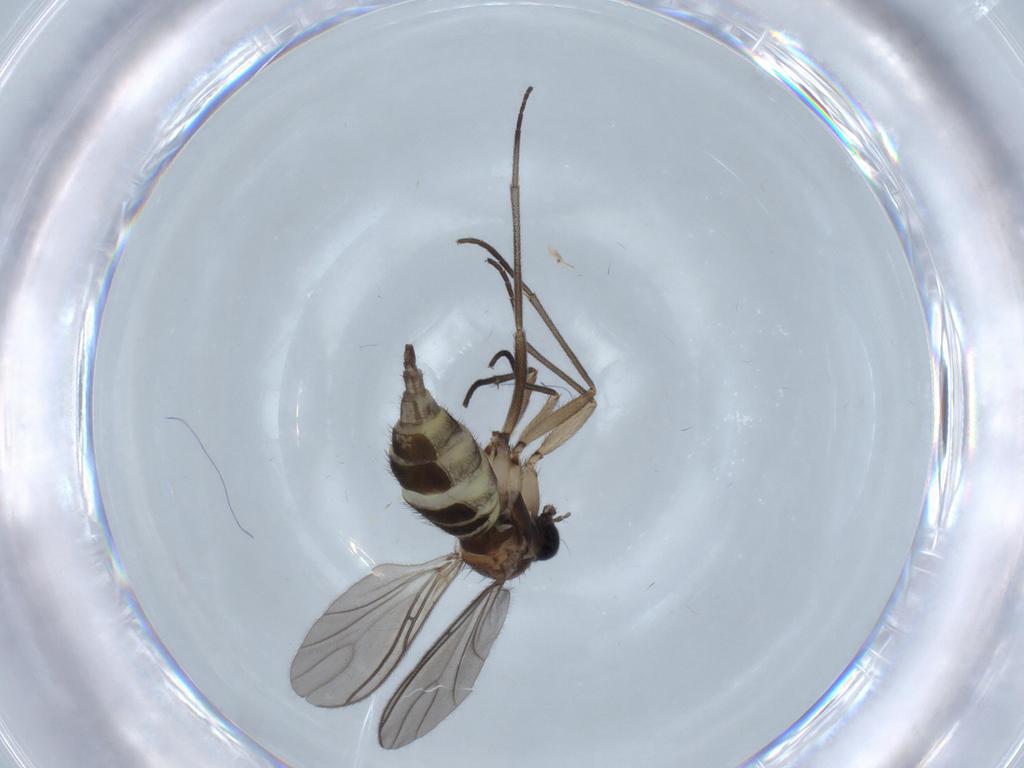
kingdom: Animalia
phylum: Arthropoda
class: Insecta
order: Diptera
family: Sciaridae
